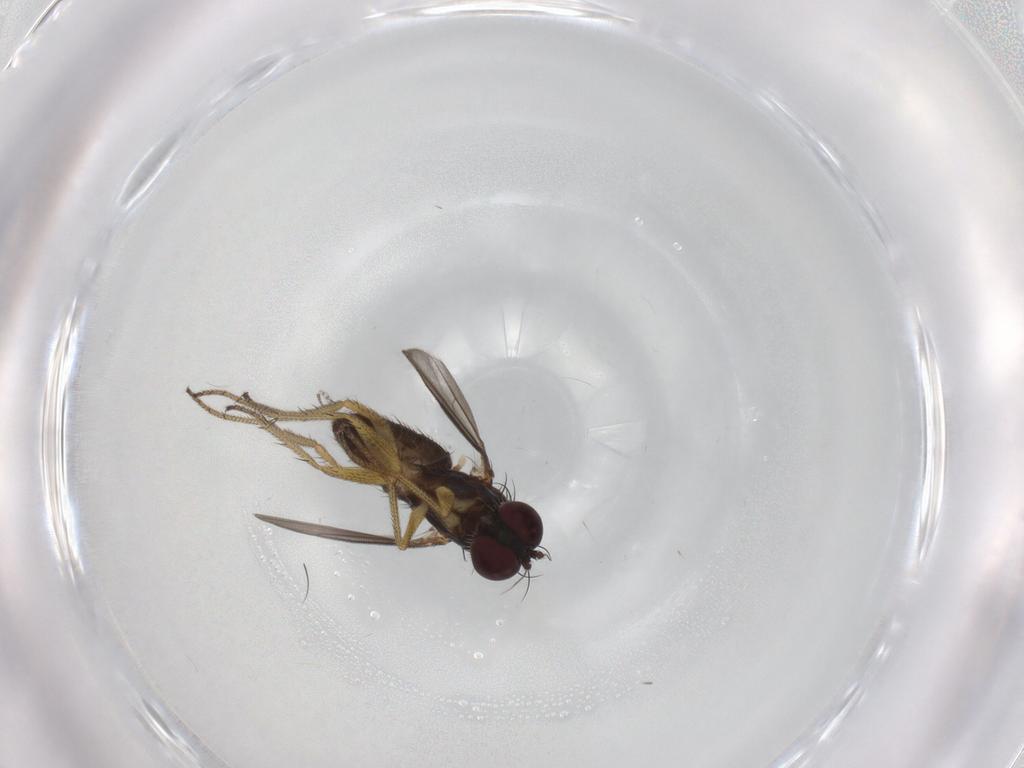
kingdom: Animalia
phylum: Arthropoda
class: Insecta
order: Diptera
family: Dolichopodidae
